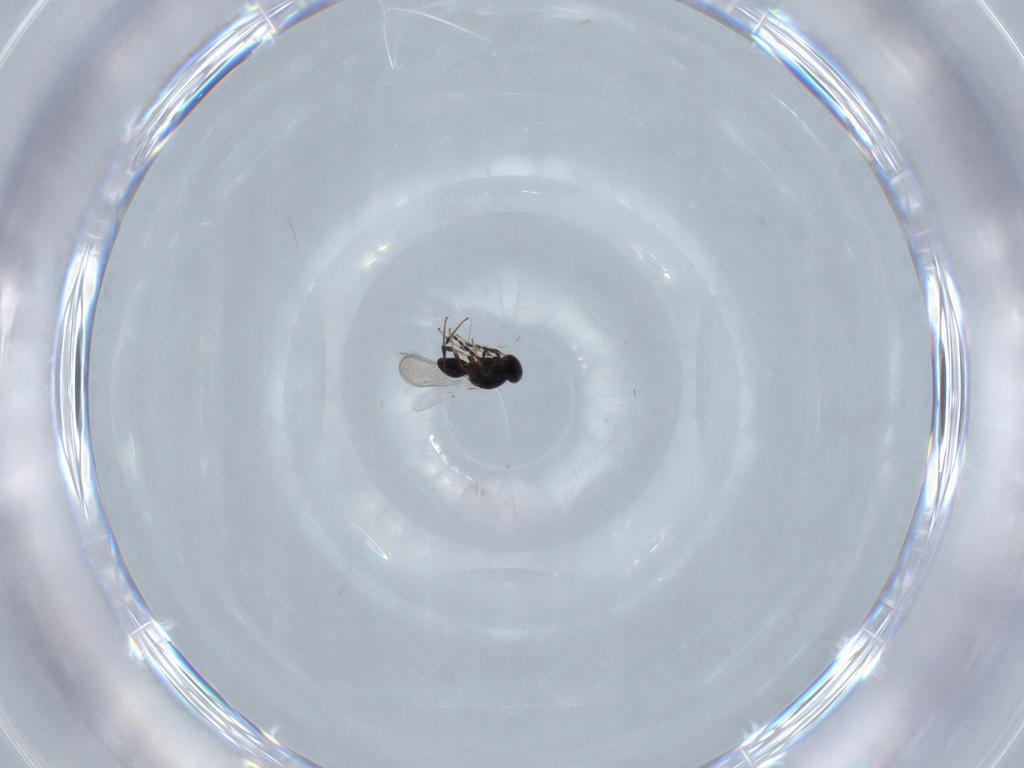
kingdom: Animalia
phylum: Arthropoda
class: Insecta
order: Hymenoptera
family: Platygastridae
